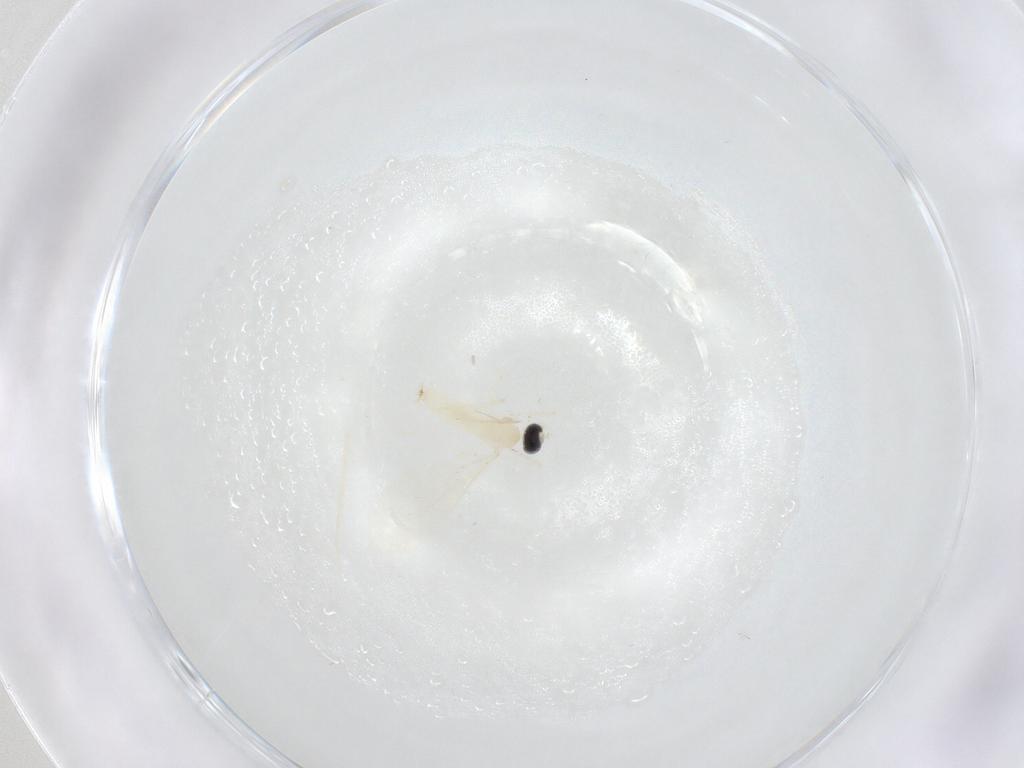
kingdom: Animalia
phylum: Arthropoda
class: Insecta
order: Diptera
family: Cecidomyiidae
